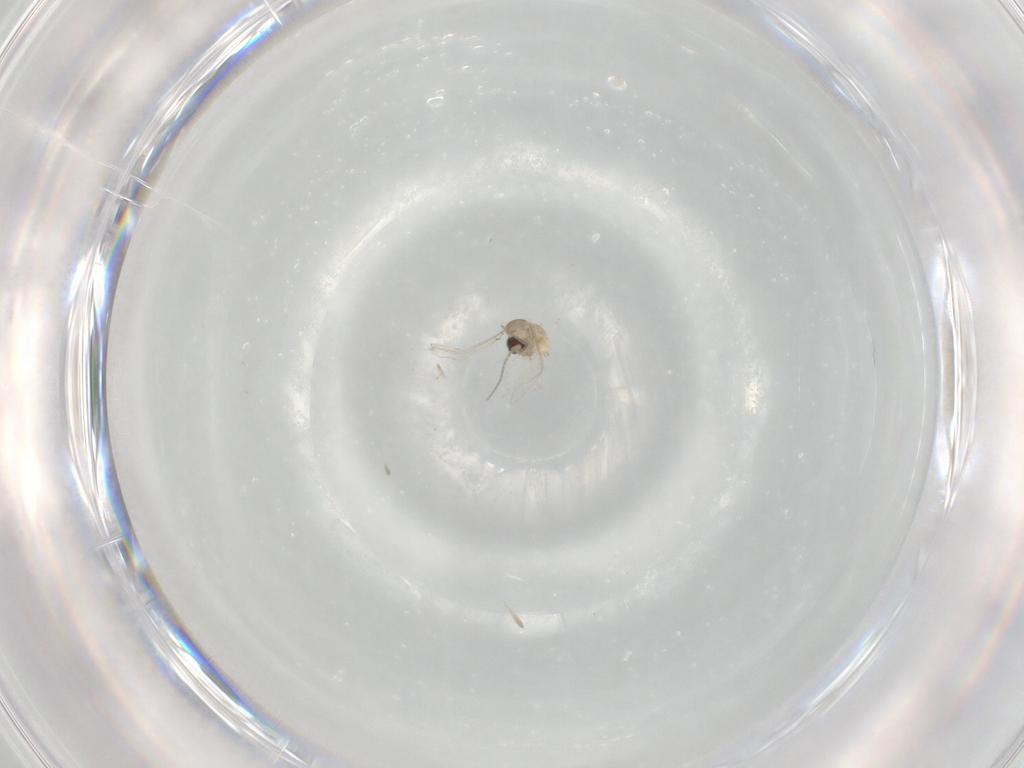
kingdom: Animalia
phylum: Arthropoda
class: Insecta
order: Diptera
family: Cecidomyiidae
